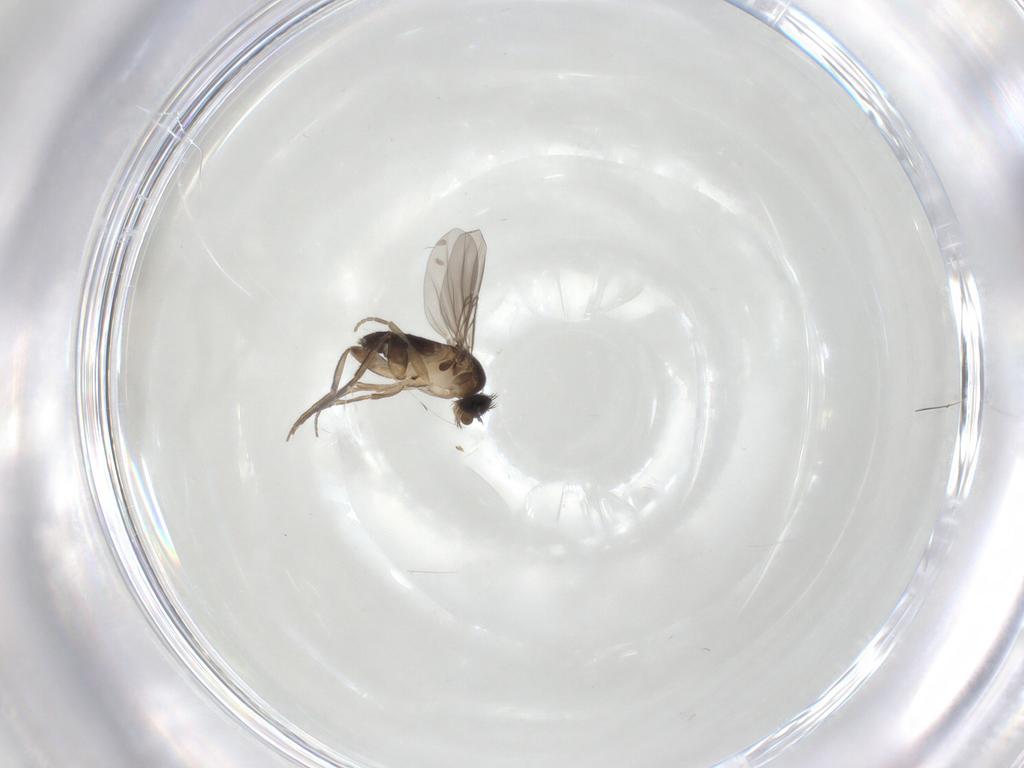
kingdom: Animalia
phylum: Arthropoda
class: Insecta
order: Diptera
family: Phoridae
